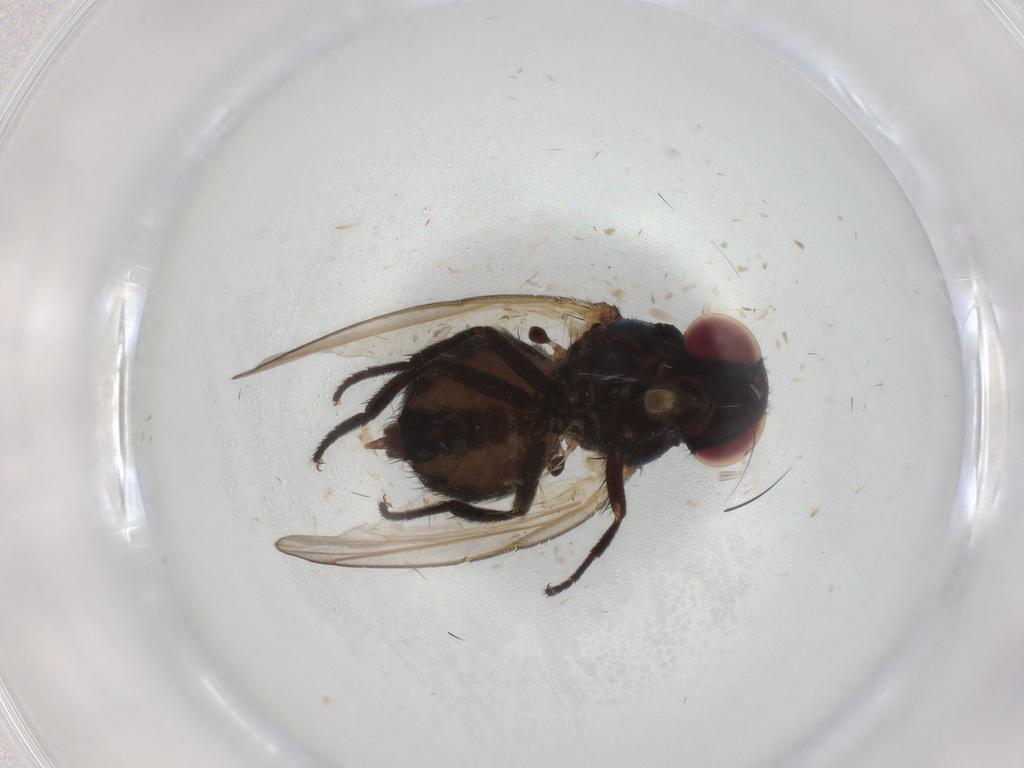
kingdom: Animalia
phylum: Arthropoda
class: Insecta
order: Diptera
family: Lonchaeidae
